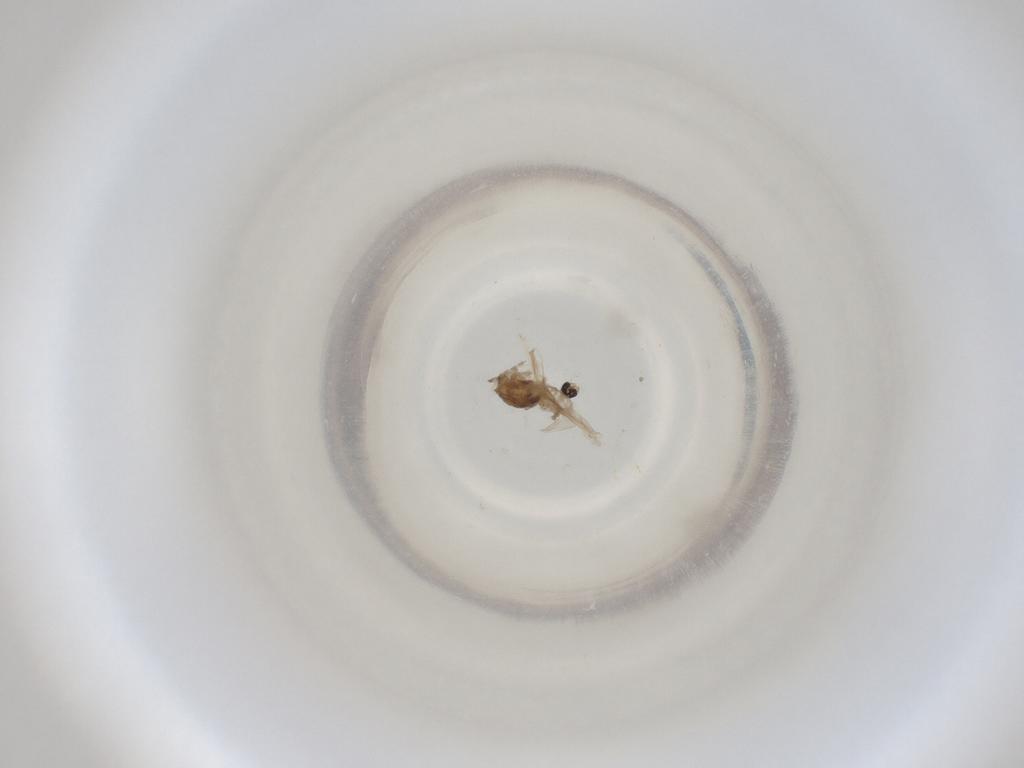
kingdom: Animalia
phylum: Arthropoda
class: Insecta
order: Diptera
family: Cecidomyiidae
